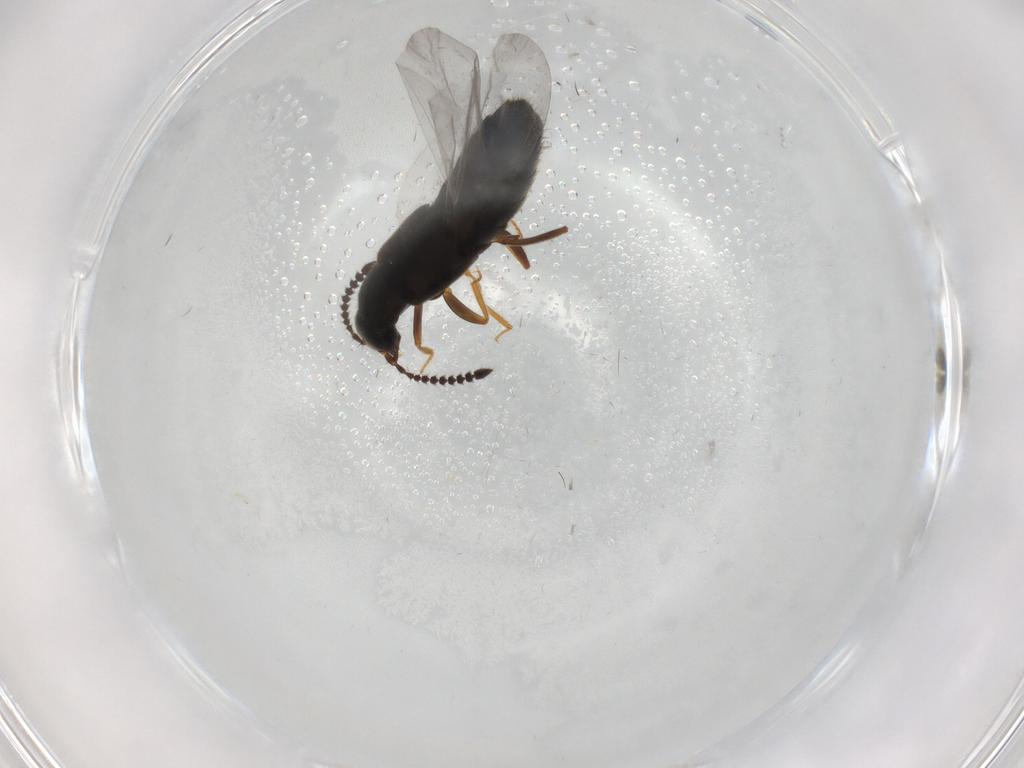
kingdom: Animalia
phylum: Arthropoda
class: Insecta
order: Coleoptera
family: Staphylinidae
